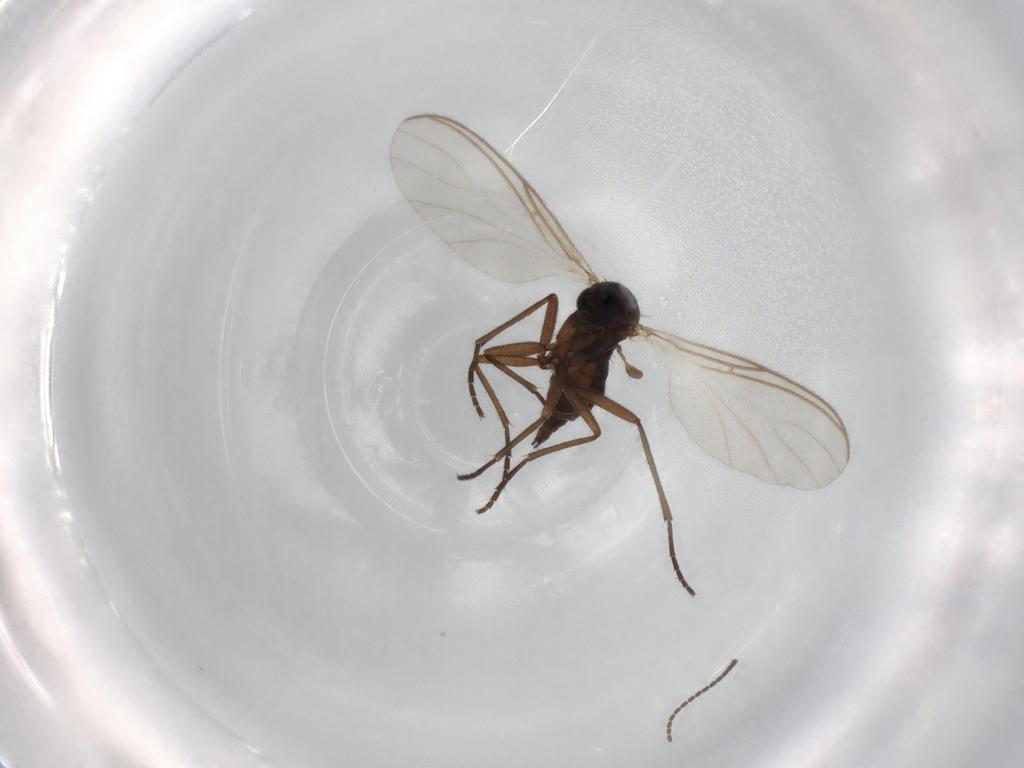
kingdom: Animalia
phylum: Arthropoda
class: Insecta
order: Diptera
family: Sciaridae
